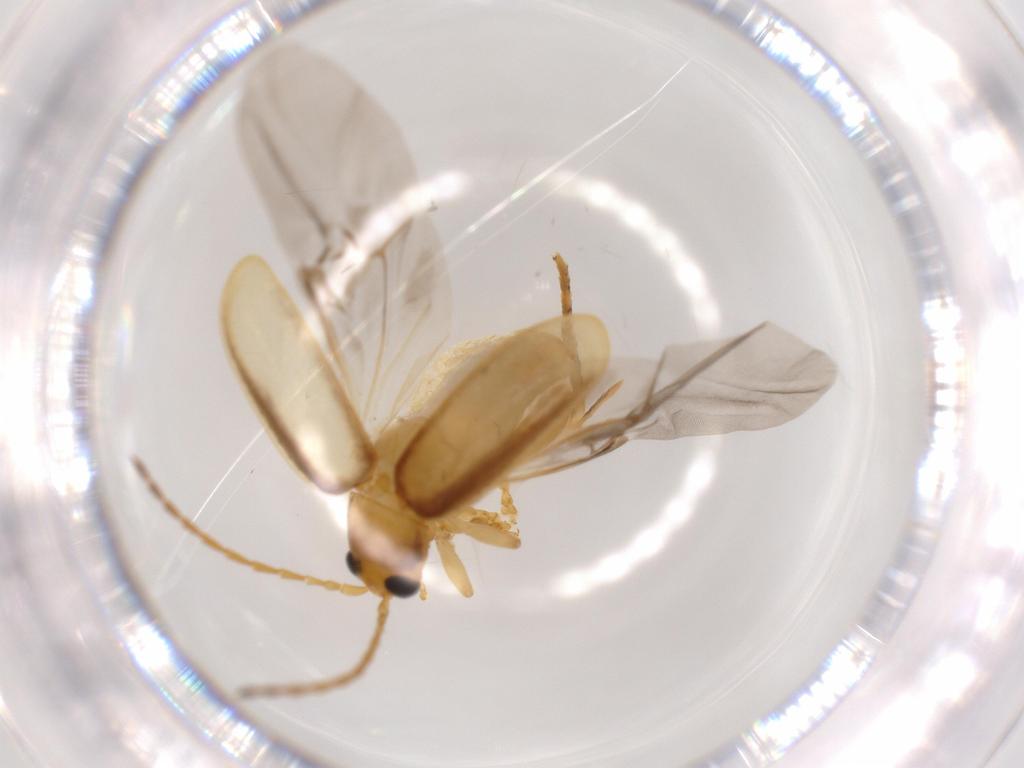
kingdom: Animalia
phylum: Arthropoda
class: Insecta
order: Coleoptera
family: Chrysomelidae
